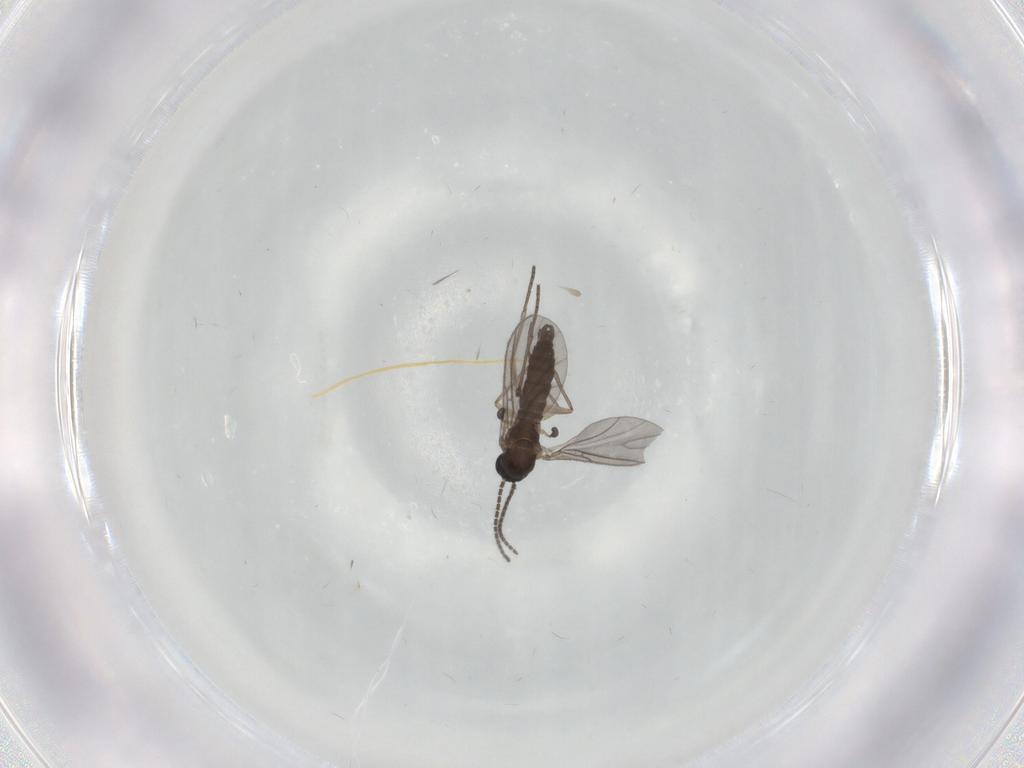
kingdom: Animalia
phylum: Arthropoda
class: Insecta
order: Diptera
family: Sciaridae
